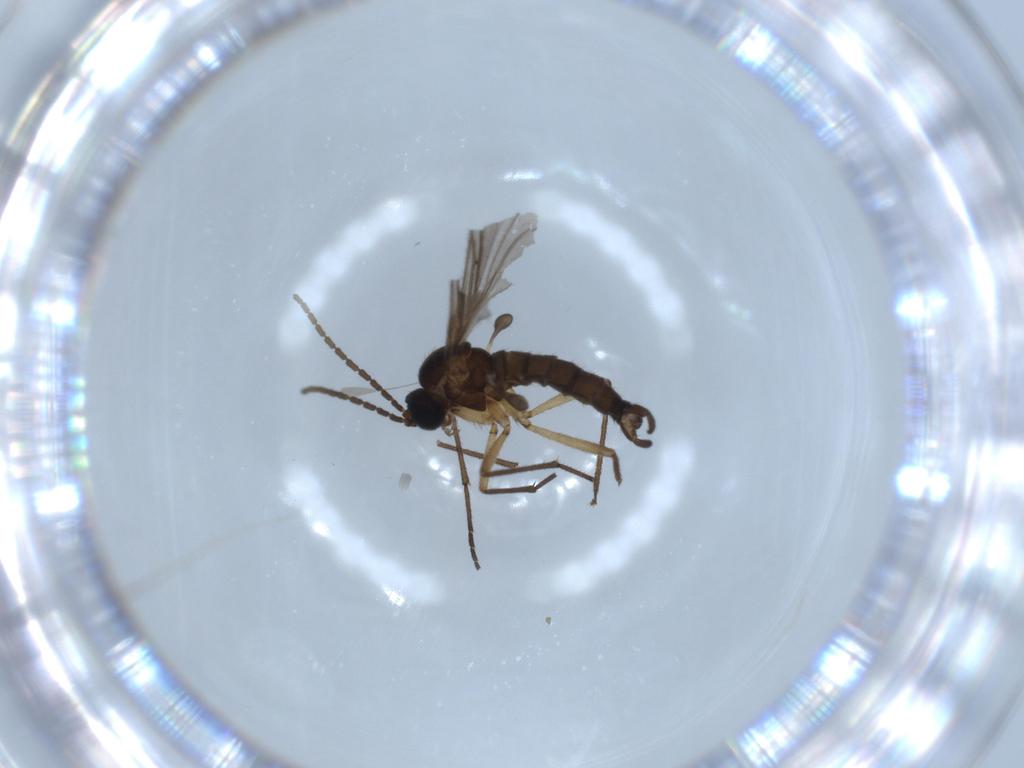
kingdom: Animalia
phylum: Arthropoda
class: Insecta
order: Diptera
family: Sciaridae
